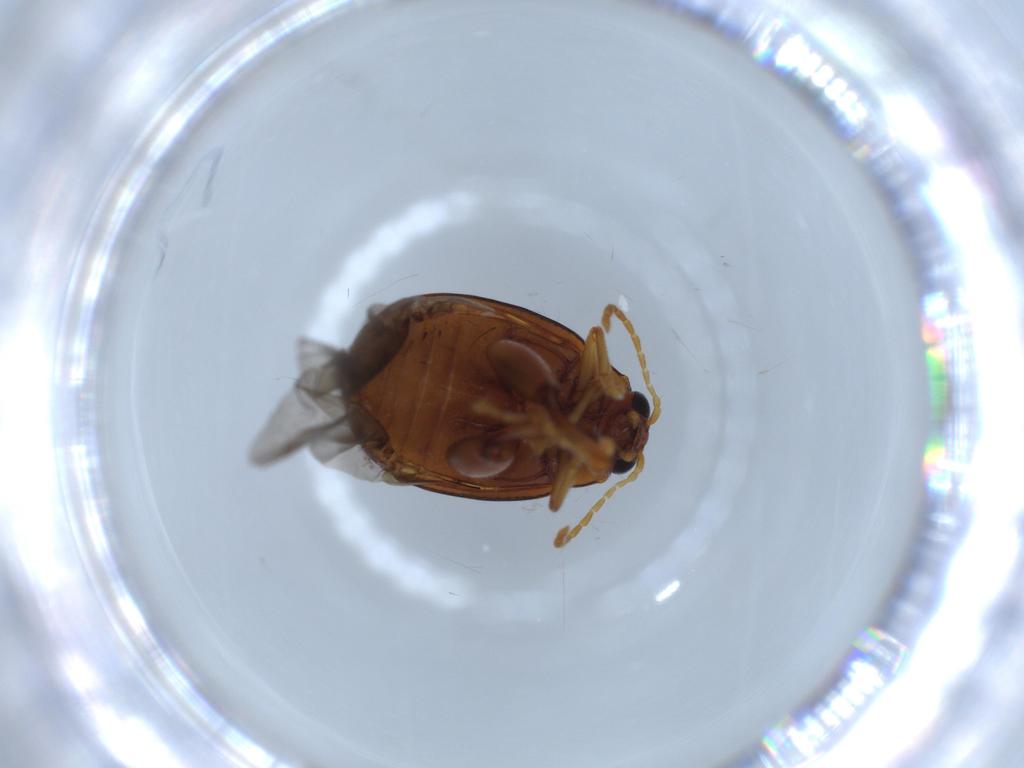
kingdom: Animalia
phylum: Arthropoda
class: Insecta
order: Coleoptera
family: Chrysomelidae
